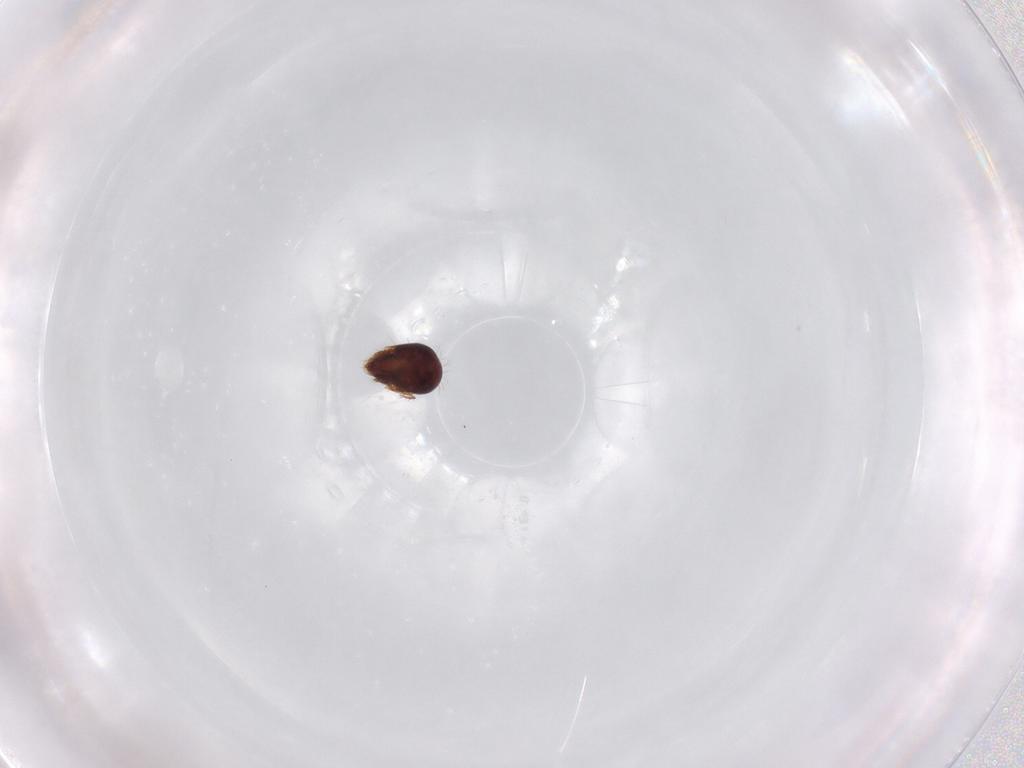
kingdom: Animalia
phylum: Arthropoda
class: Arachnida
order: Sarcoptiformes
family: Humerobatidae
